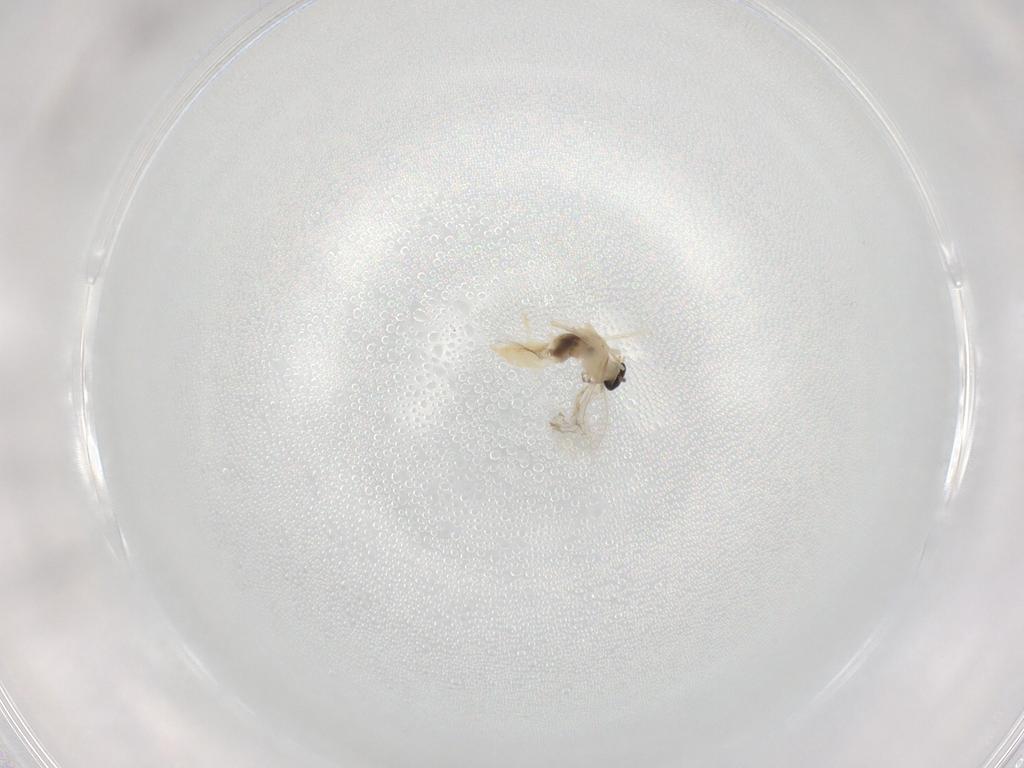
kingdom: Animalia
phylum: Arthropoda
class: Insecta
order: Diptera
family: Cecidomyiidae
